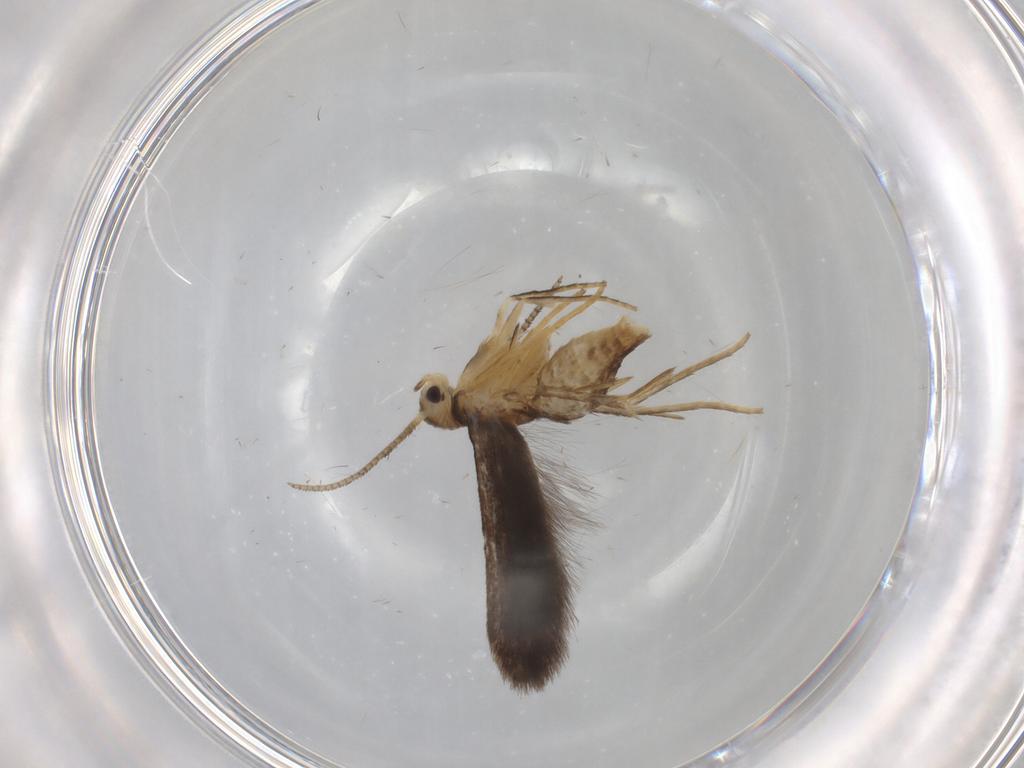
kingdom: Animalia
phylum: Arthropoda
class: Insecta
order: Lepidoptera
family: Schreckensteiniidae
